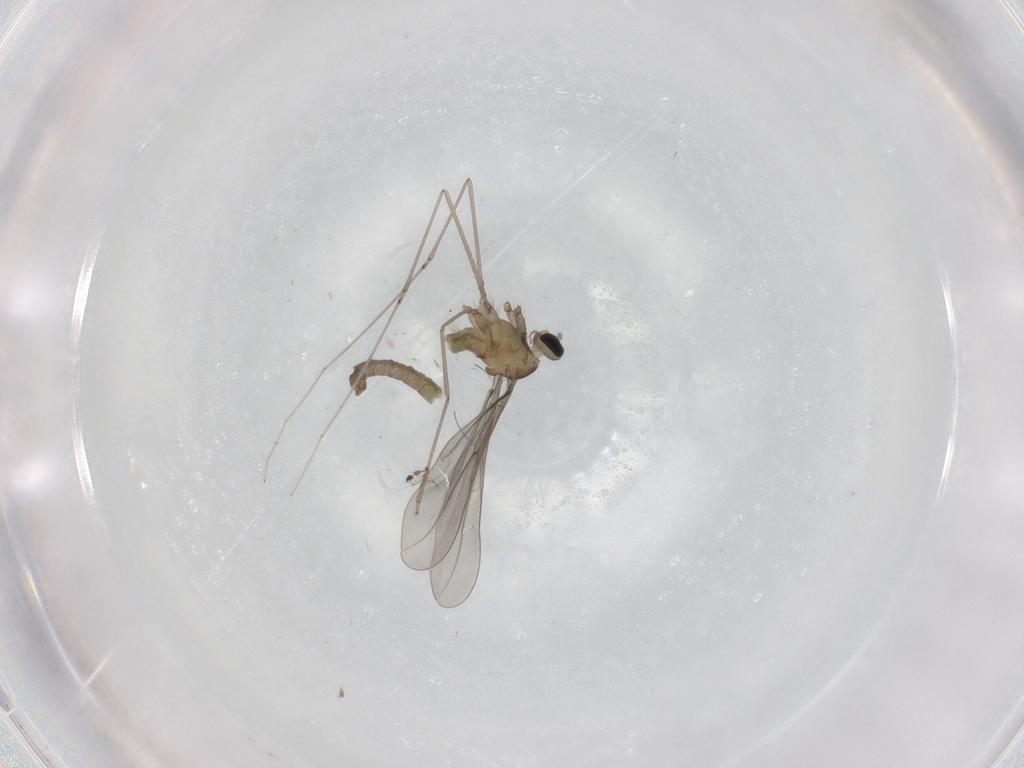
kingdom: Animalia
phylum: Arthropoda
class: Insecta
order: Diptera
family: Cecidomyiidae
